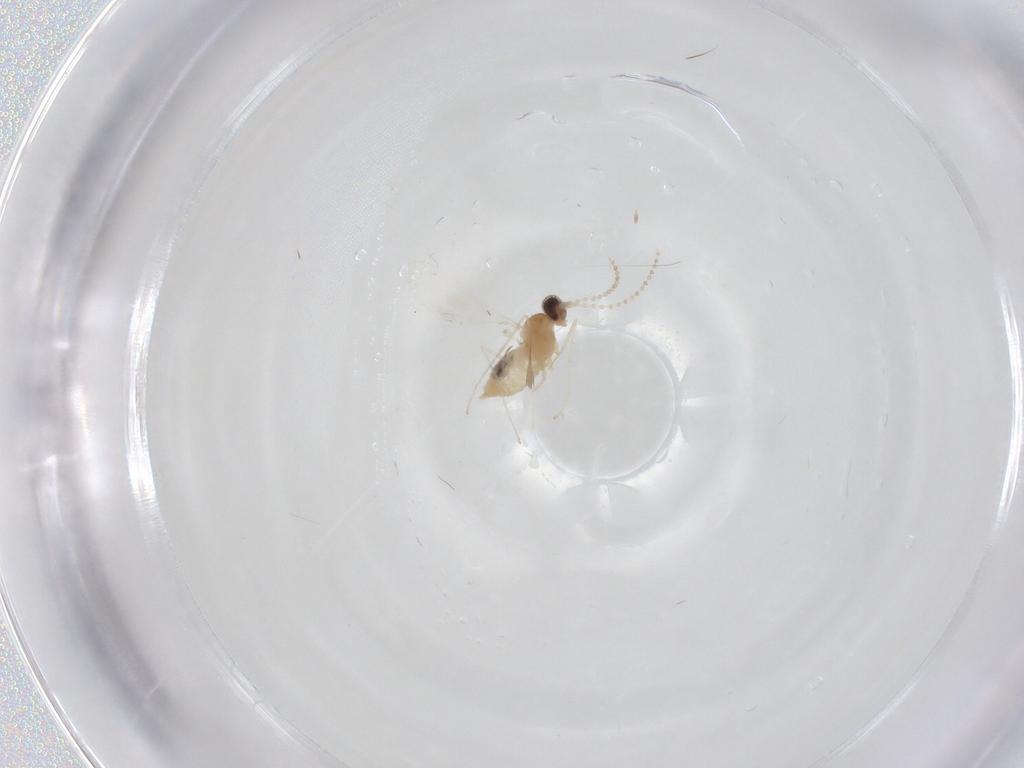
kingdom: Animalia
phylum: Arthropoda
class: Insecta
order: Diptera
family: Cecidomyiidae
